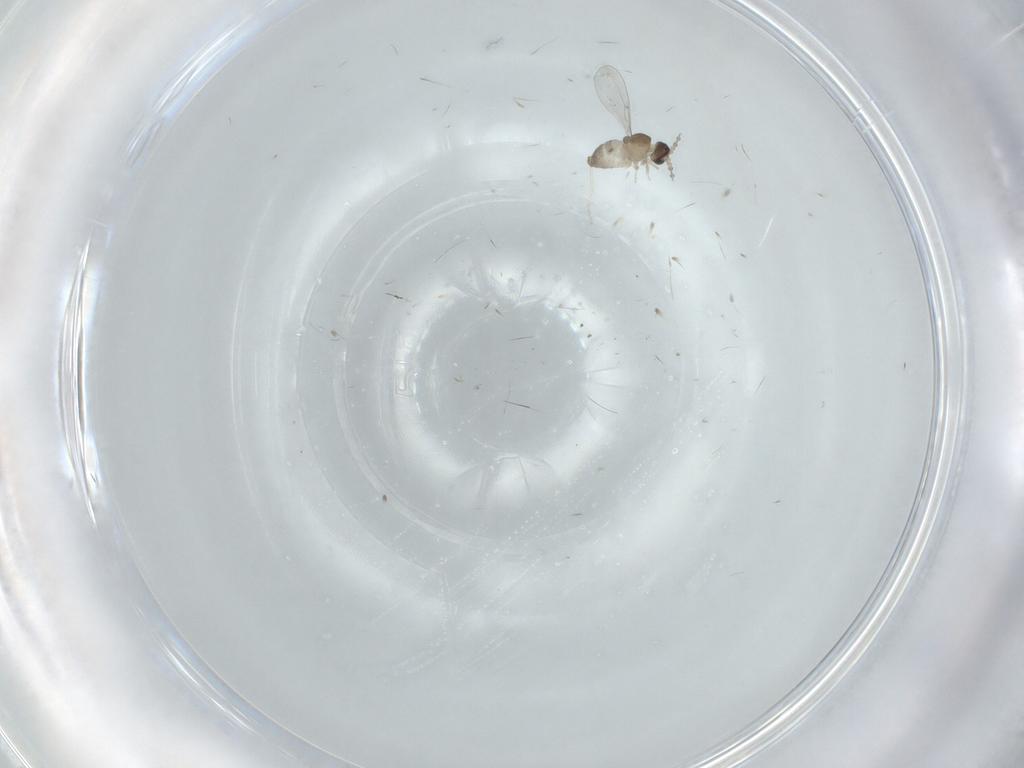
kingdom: Animalia
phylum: Arthropoda
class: Insecta
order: Diptera
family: Cecidomyiidae
